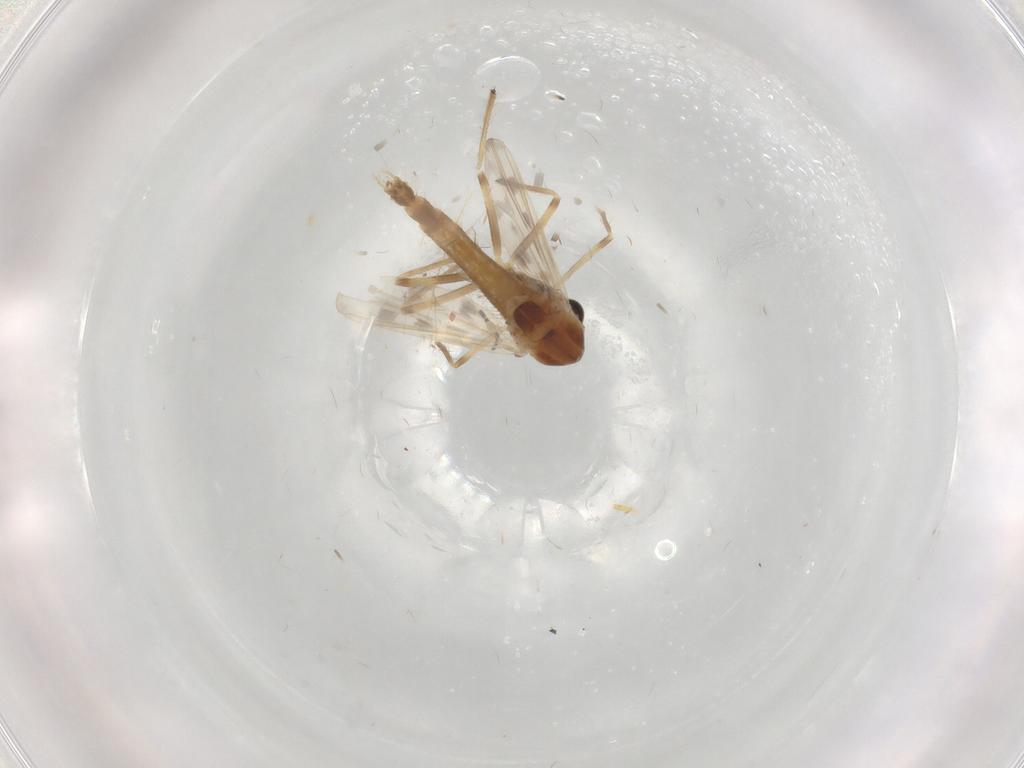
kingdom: Animalia
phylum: Arthropoda
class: Insecta
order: Diptera
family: Chironomidae
